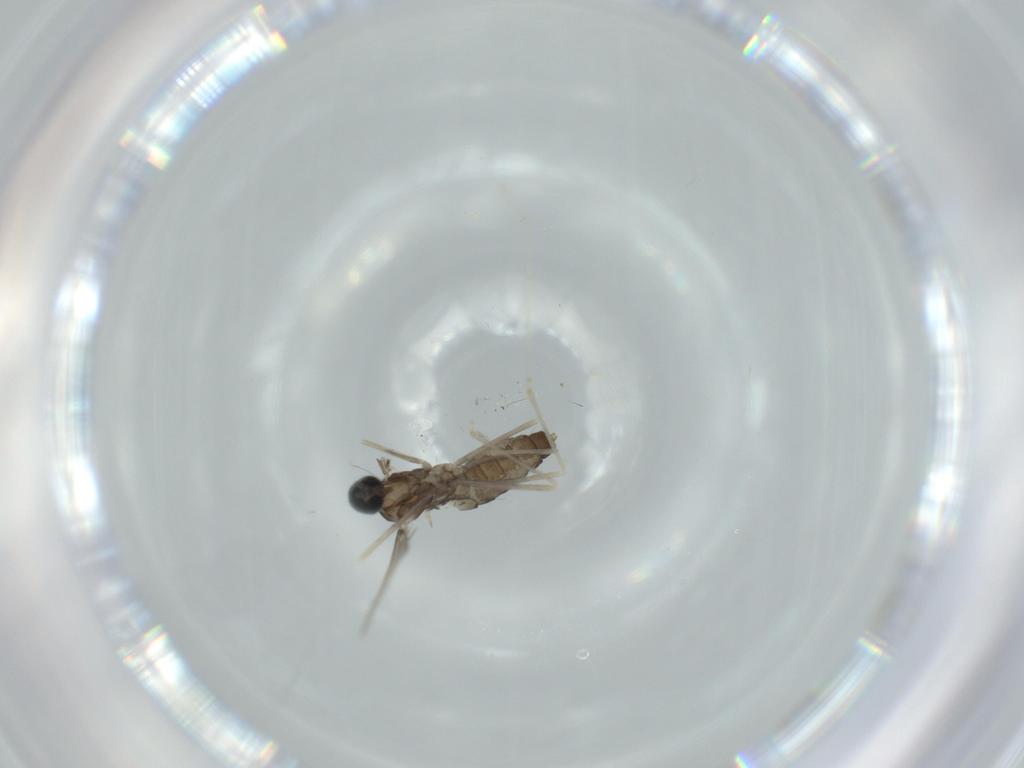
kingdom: Animalia
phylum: Arthropoda
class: Insecta
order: Diptera
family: Cecidomyiidae
